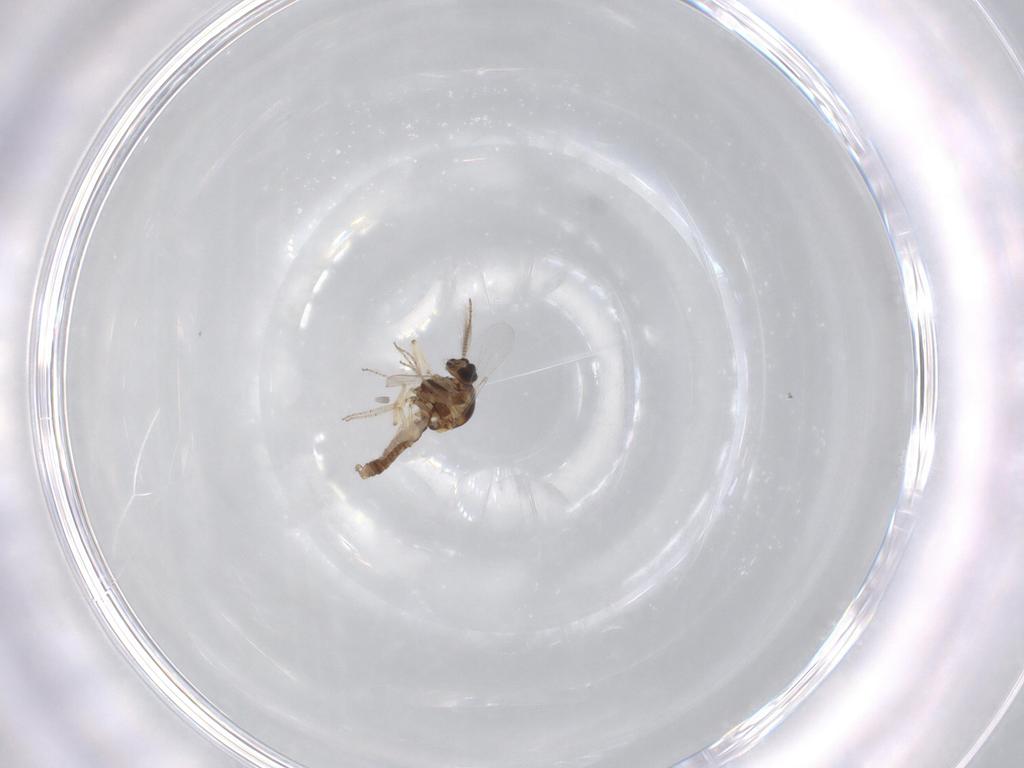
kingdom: Animalia
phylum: Arthropoda
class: Insecta
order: Diptera
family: Ceratopogonidae
